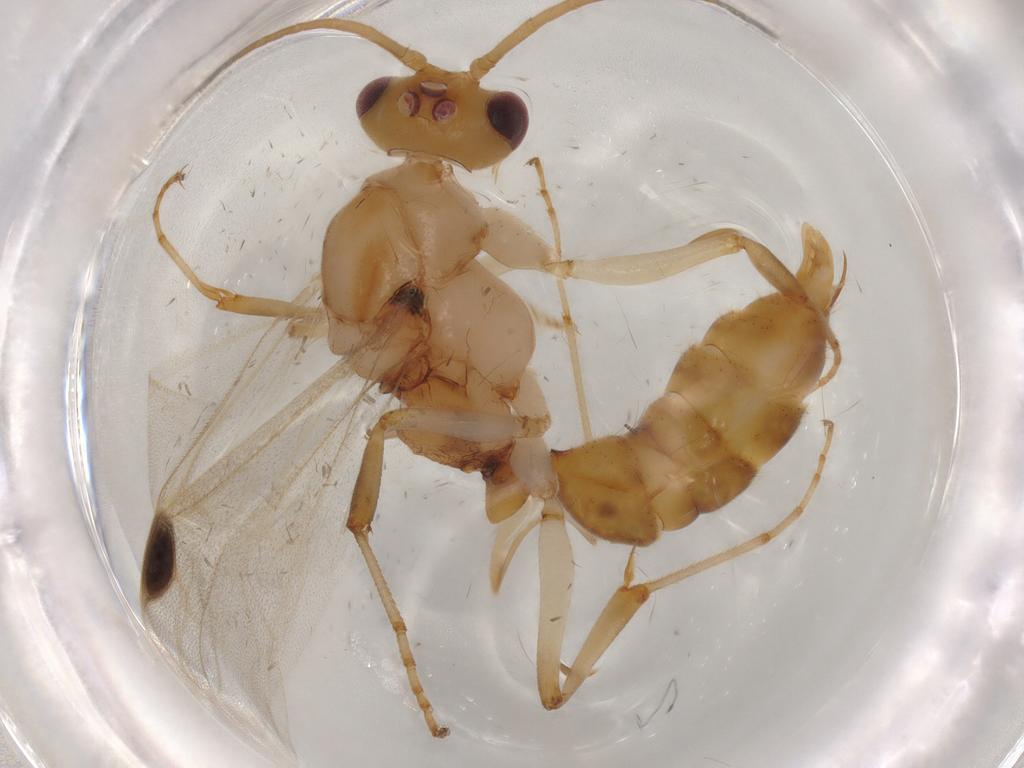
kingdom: Animalia
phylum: Arthropoda
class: Insecta
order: Hymenoptera
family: Formicidae
